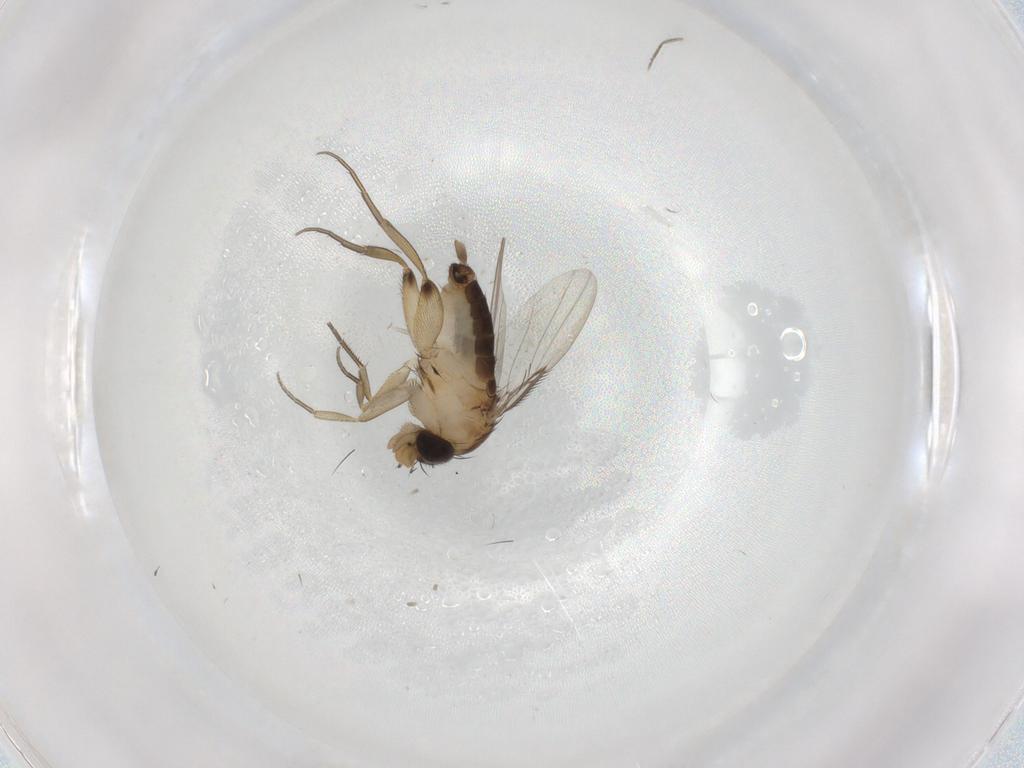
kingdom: Animalia
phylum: Arthropoda
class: Insecta
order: Diptera
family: Phoridae
